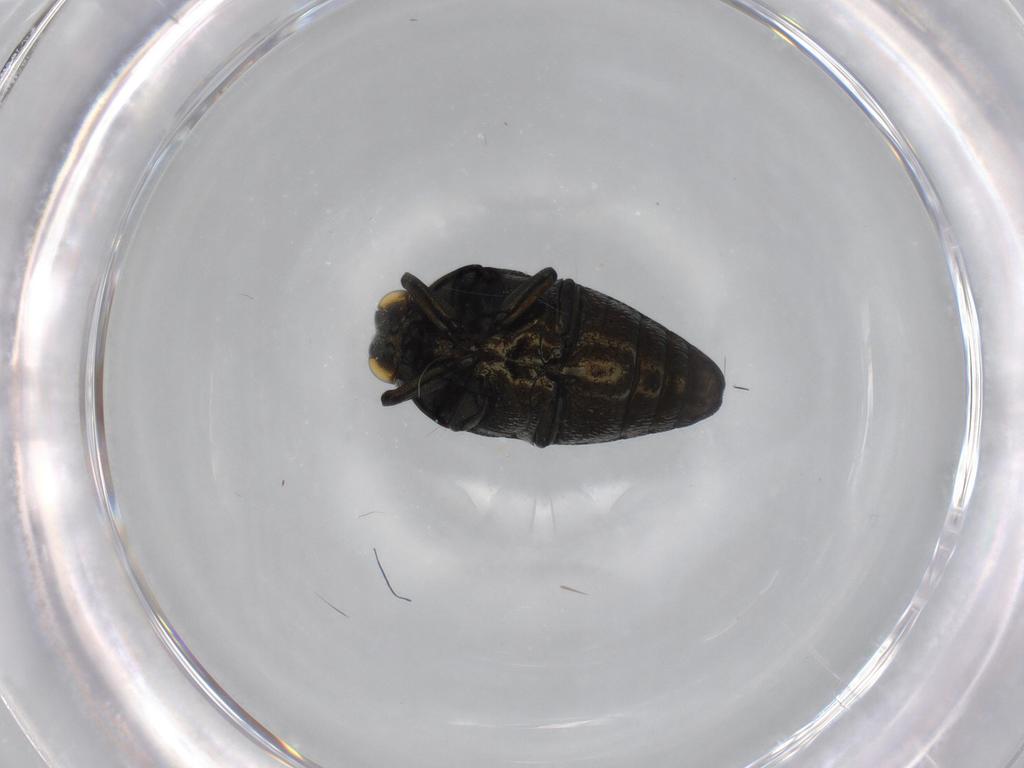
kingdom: Animalia
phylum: Arthropoda
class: Insecta
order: Coleoptera
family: Buprestidae
